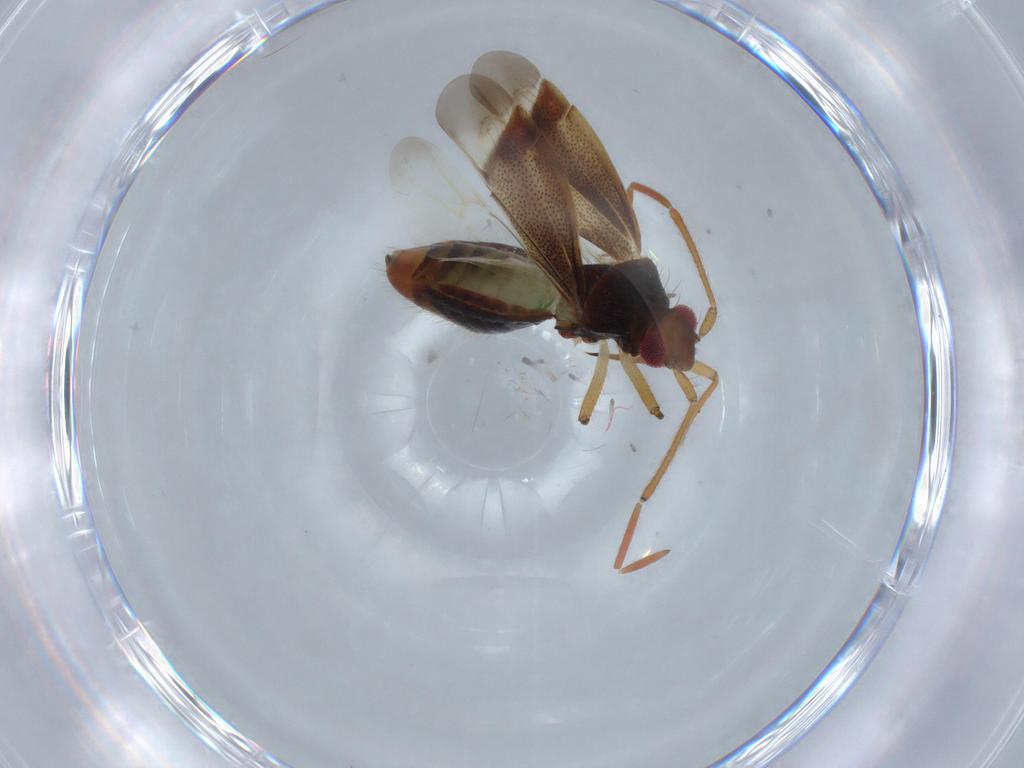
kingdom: Animalia
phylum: Arthropoda
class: Insecta
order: Hemiptera
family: Miridae
